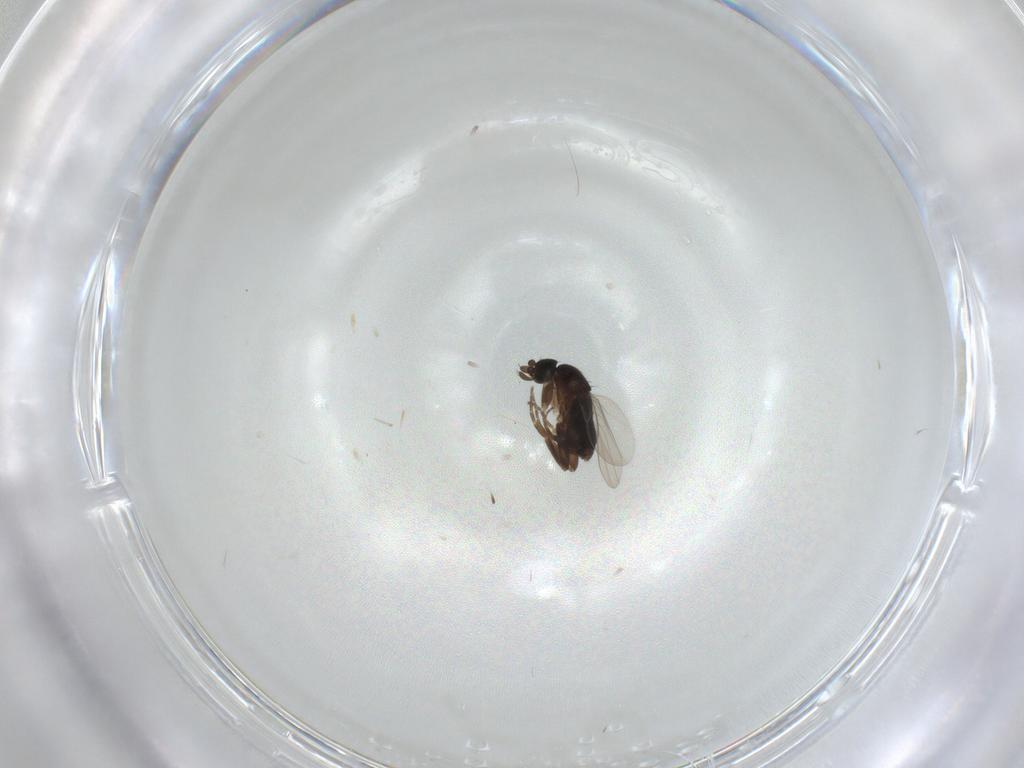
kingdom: Animalia
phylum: Arthropoda
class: Insecta
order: Diptera
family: Phoridae
